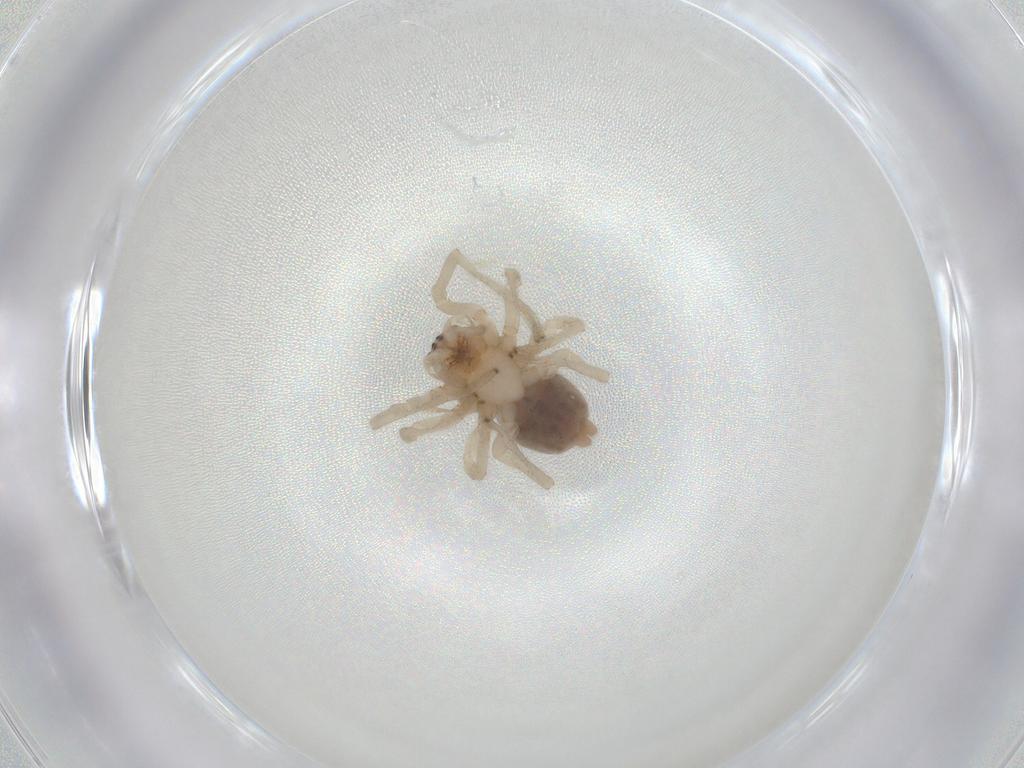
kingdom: Animalia
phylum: Arthropoda
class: Arachnida
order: Araneae
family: Cheiracanthiidae
